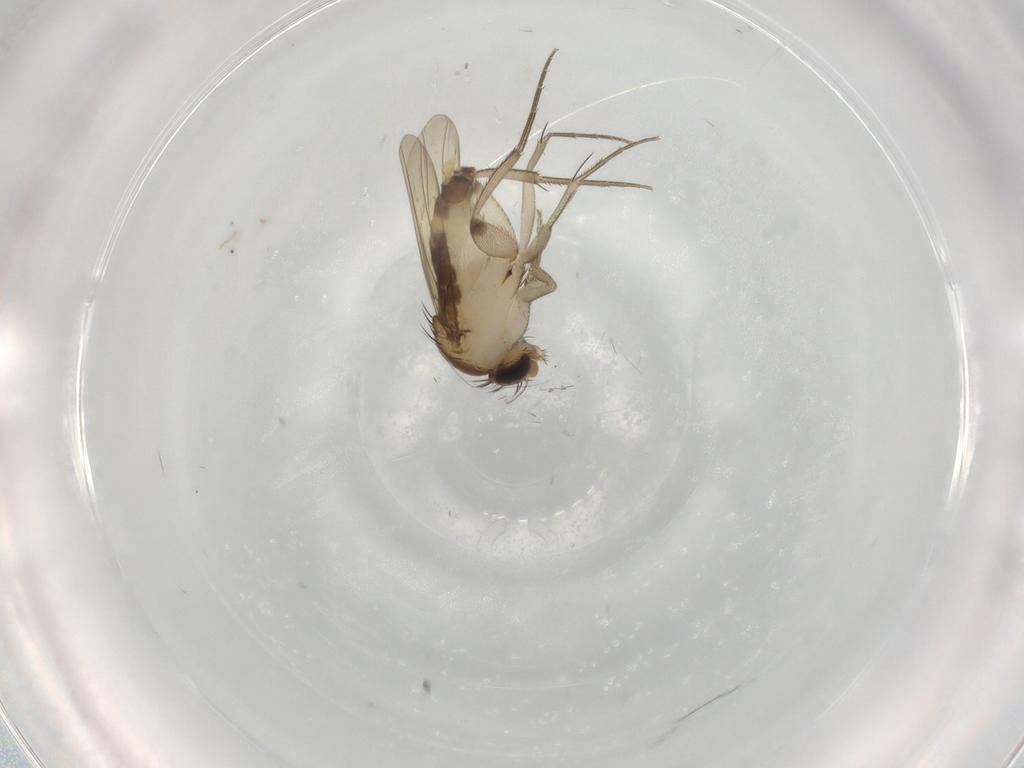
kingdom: Animalia
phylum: Arthropoda
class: Insecta
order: Diptera
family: Phoridae
